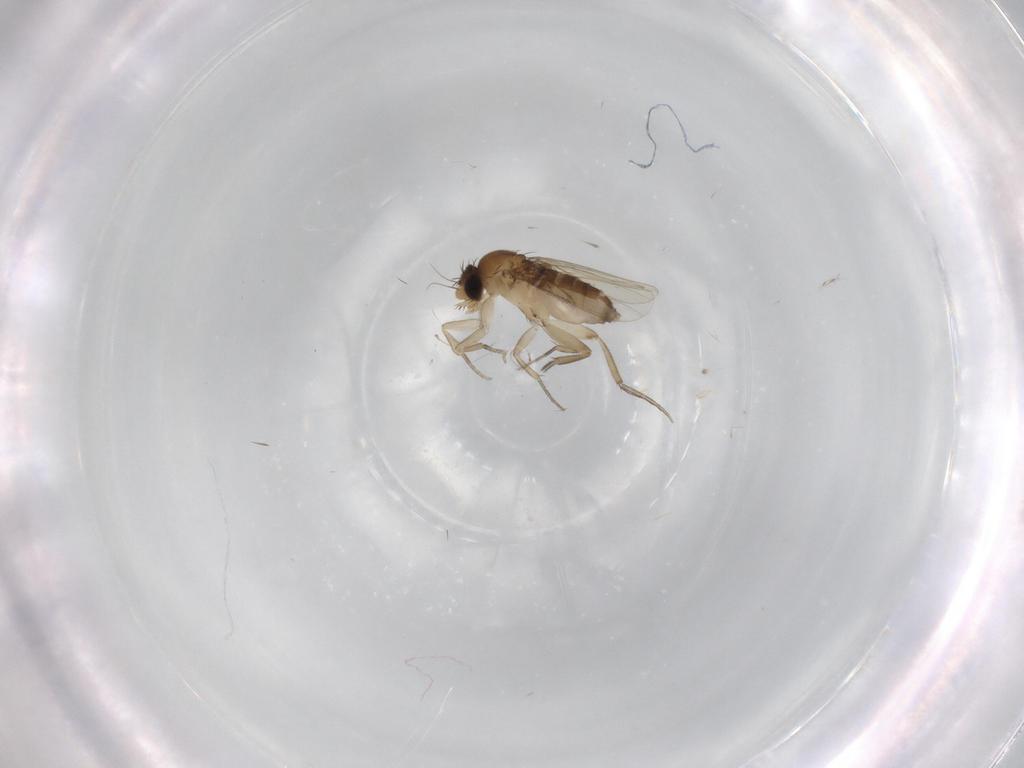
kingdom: Animalia
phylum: Arthropoda
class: Insecta
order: Diptera
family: Phoridae
